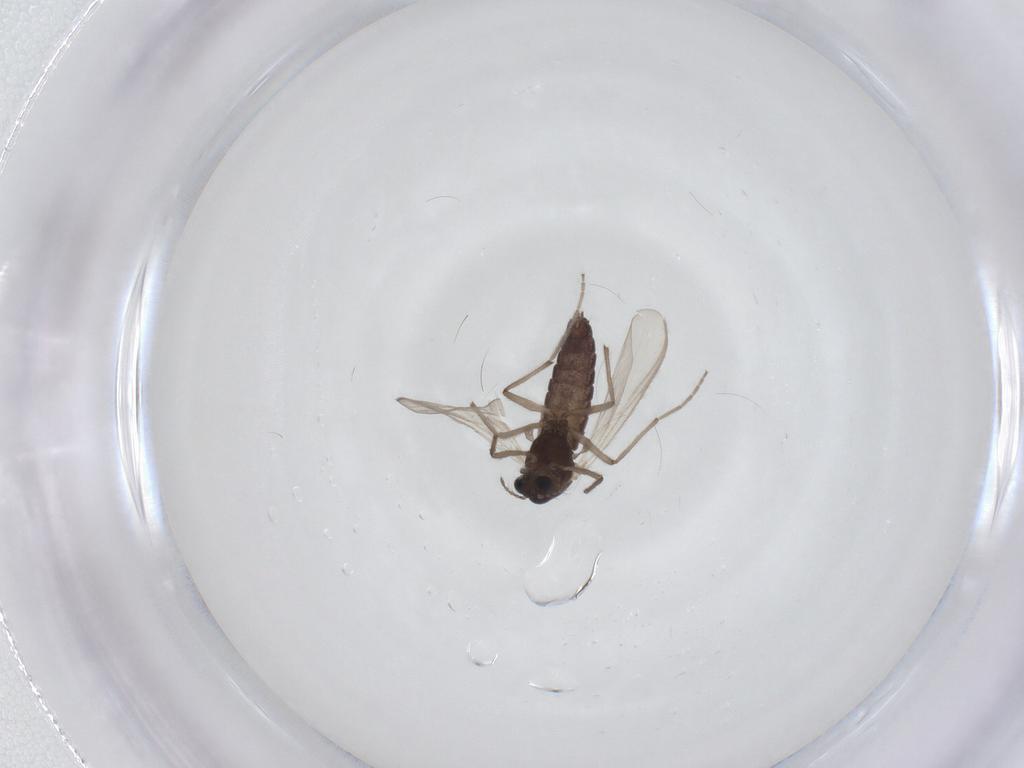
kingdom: Animalia
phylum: Arthropoda
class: Insecta
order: Diptera
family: Chironomidae
